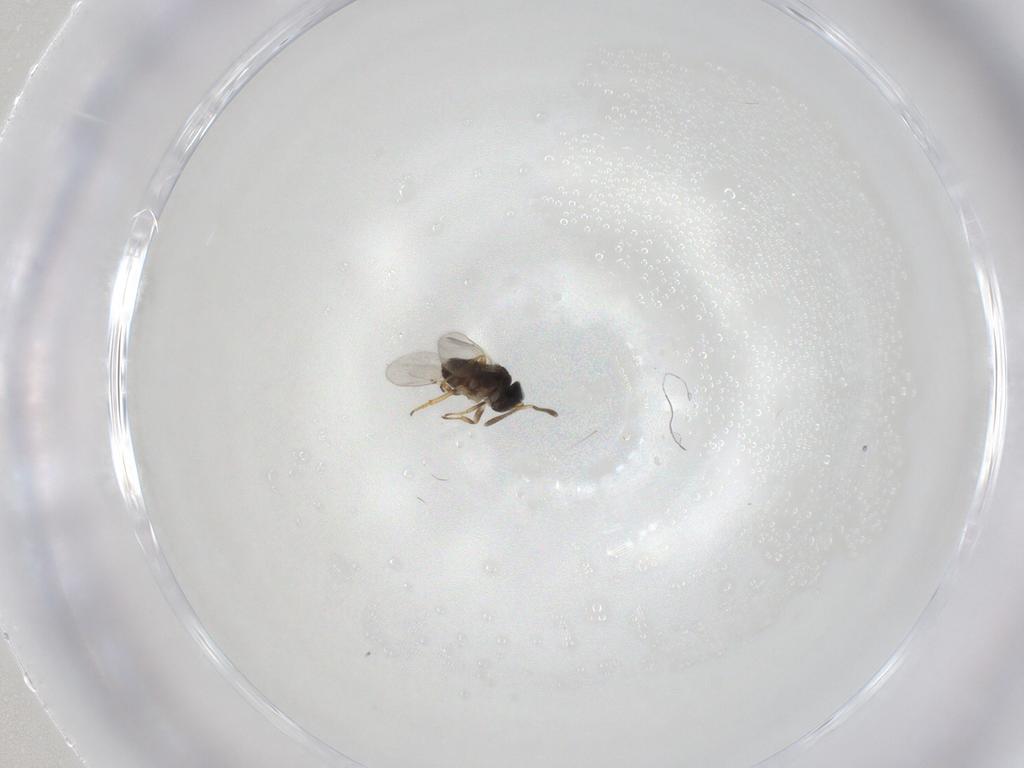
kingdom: Animalia
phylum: Arthropoda
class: Insecta
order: Hymenoptera
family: Encyrtidae
